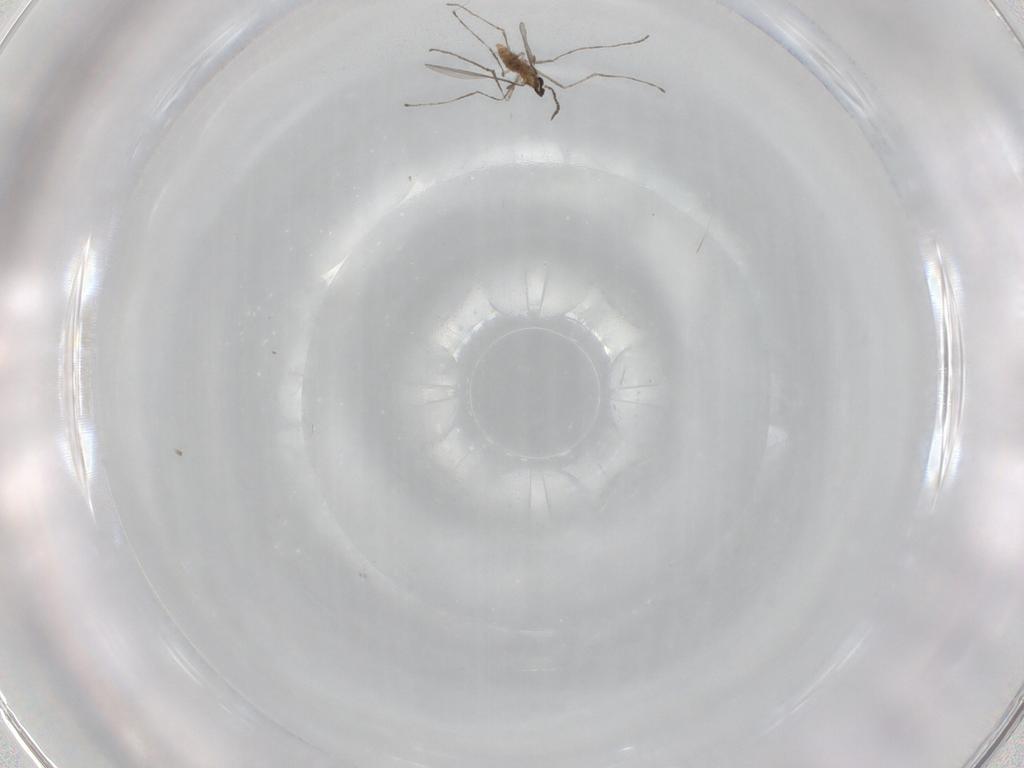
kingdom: Animalia
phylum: Arthropoda
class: Insecta
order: Diptera
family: Cecidomyiidae
